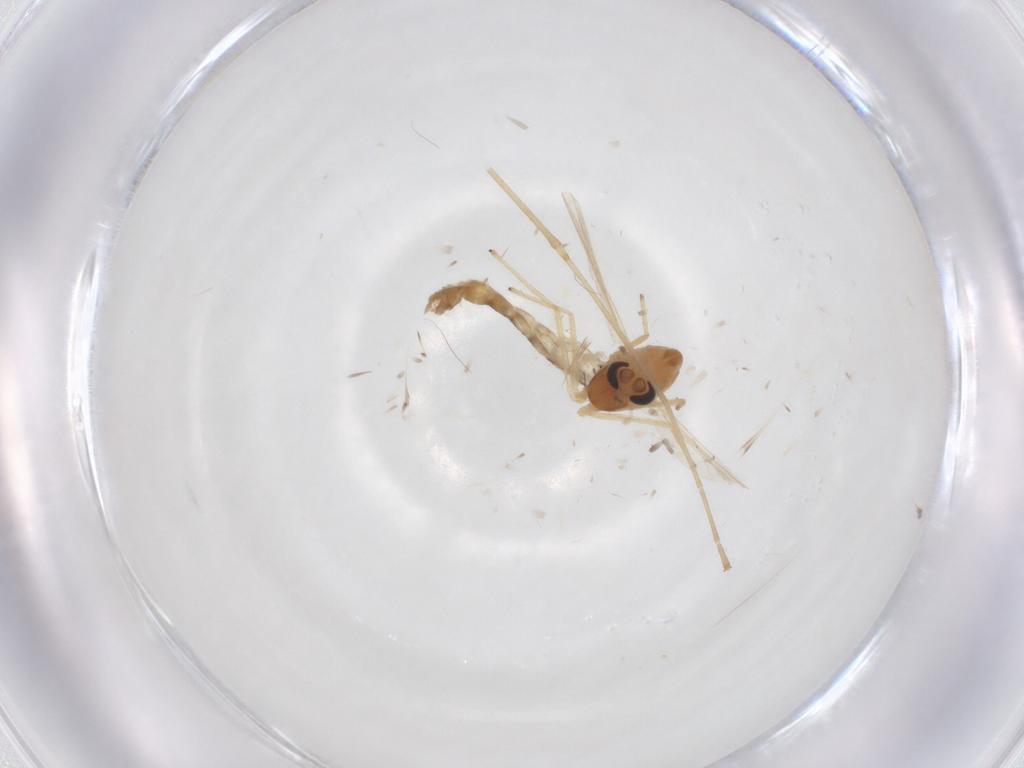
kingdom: Animalia
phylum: Arthropoda
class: Insecta
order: Diptera
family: Cecidomyiidae
